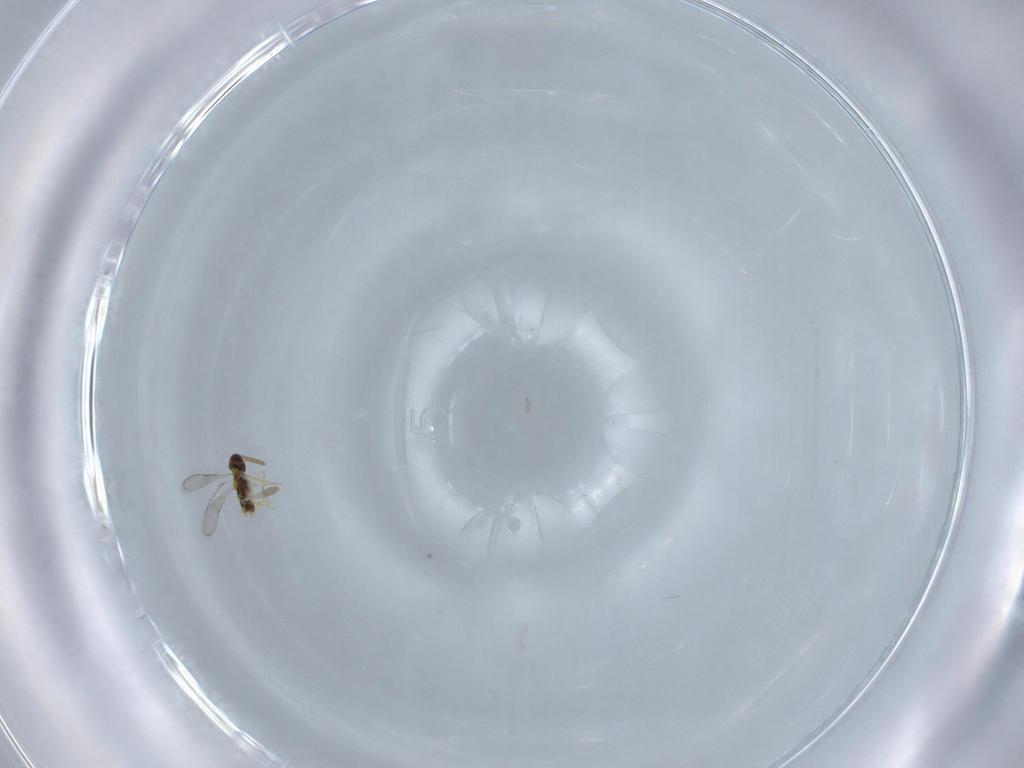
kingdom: Animalia
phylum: Arthropoda
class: Insecta
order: Hymenoptera
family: Aphelinidae
